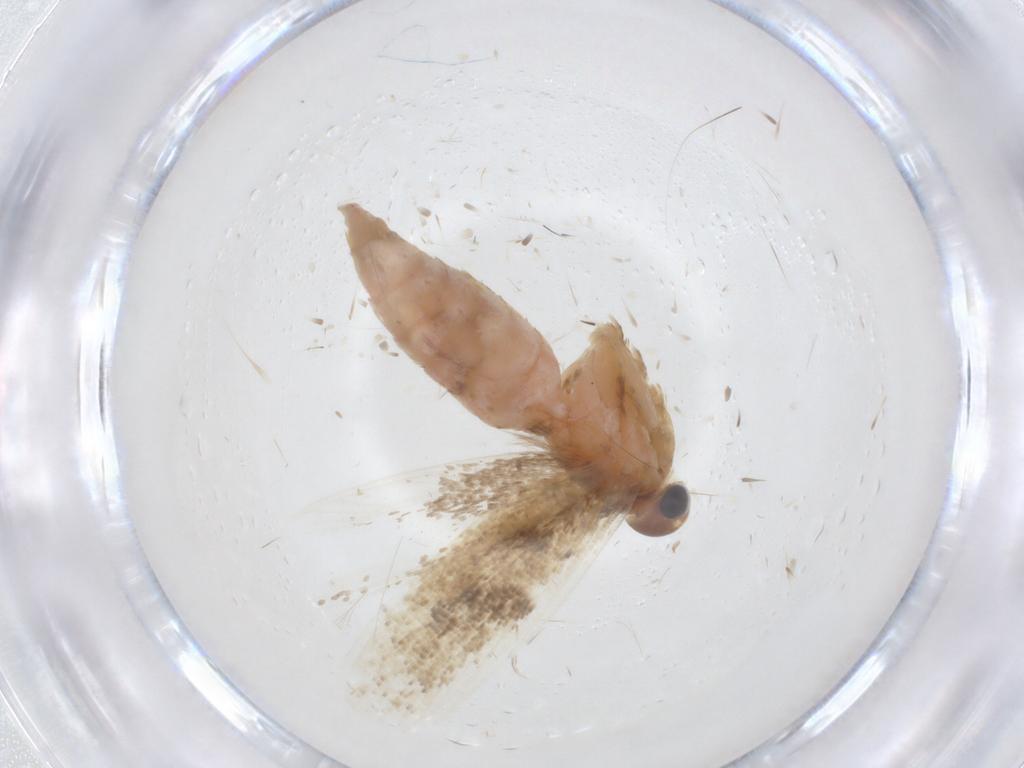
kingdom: Animalia
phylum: Arthropoda
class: Insecta
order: Lepidoptera
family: Gelechiidae
